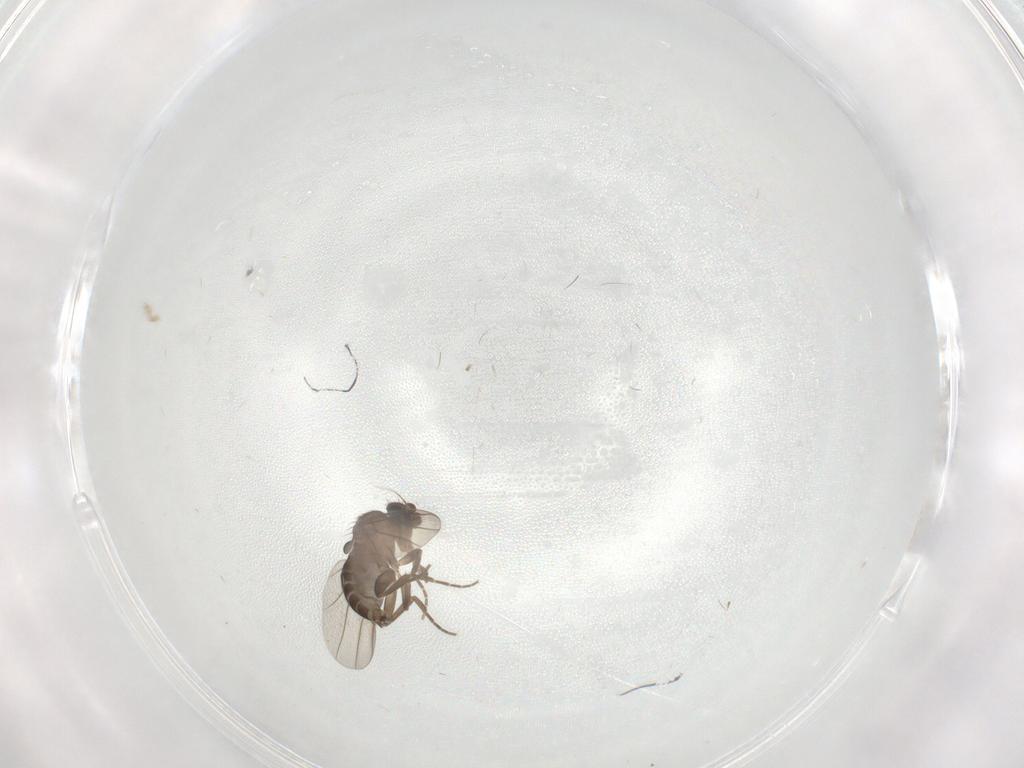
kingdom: Animalia
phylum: Arthropoda
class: Insecta
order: Diptera
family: Phoridae
